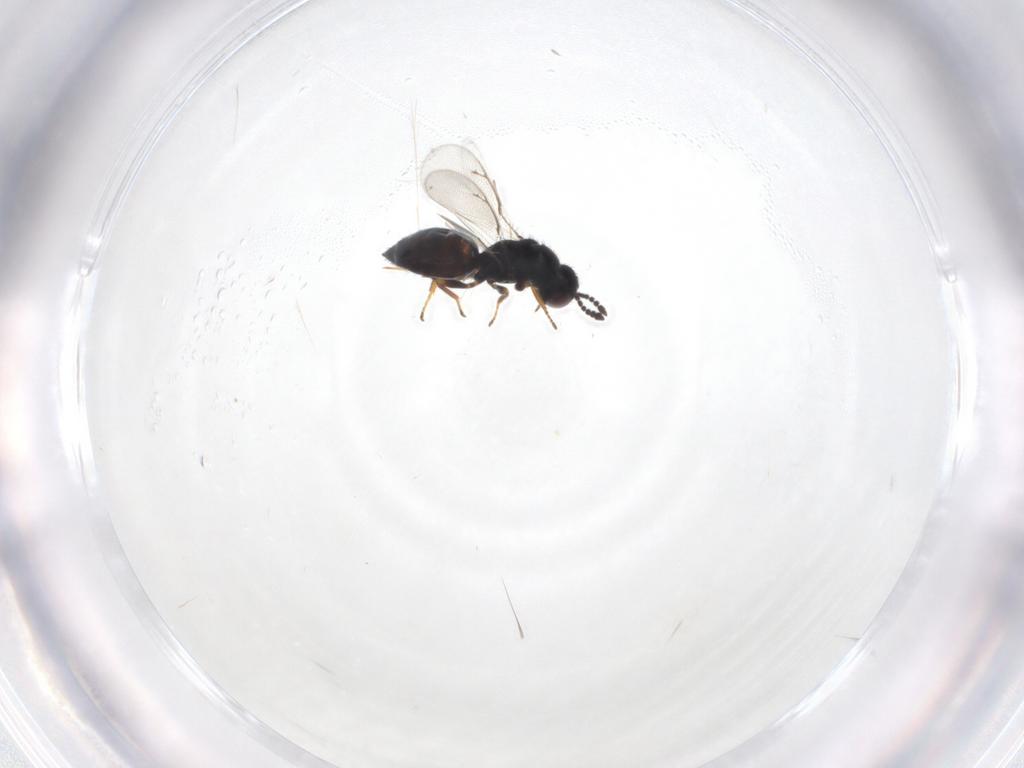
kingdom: Animalia
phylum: Arthropoda
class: Insecta
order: Hymenoptera
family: Eulophidae
